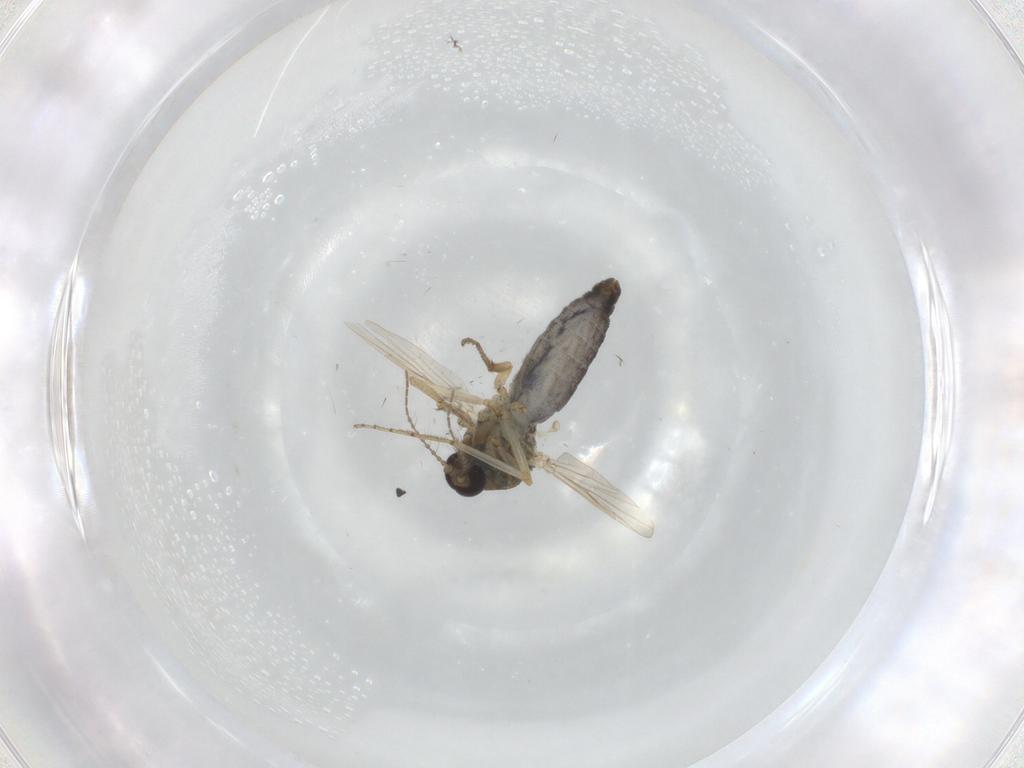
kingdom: Animalia
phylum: Arthropoda
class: Insecta
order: Diptera
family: Ceratopogonidae
